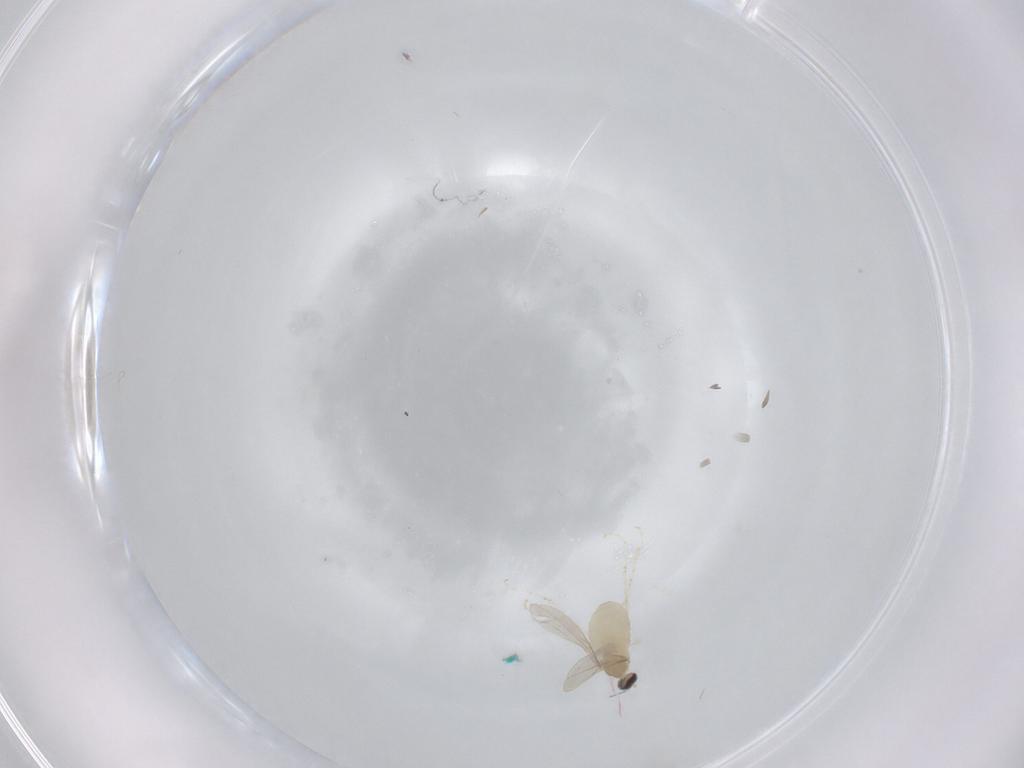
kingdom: Animalia
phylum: Arthropoda
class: Insecta
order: Diptera
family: Cecidomyiidae
